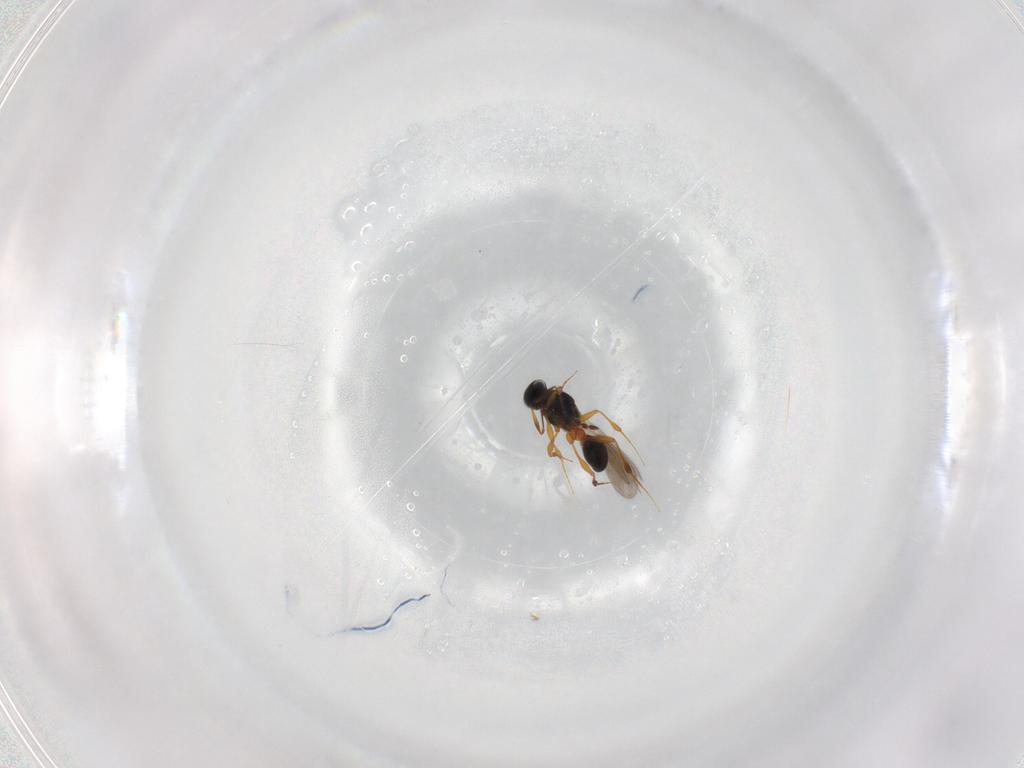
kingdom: Animalia
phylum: Arthropoda
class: Insecta
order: Hymenoptera
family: Platygastridae
